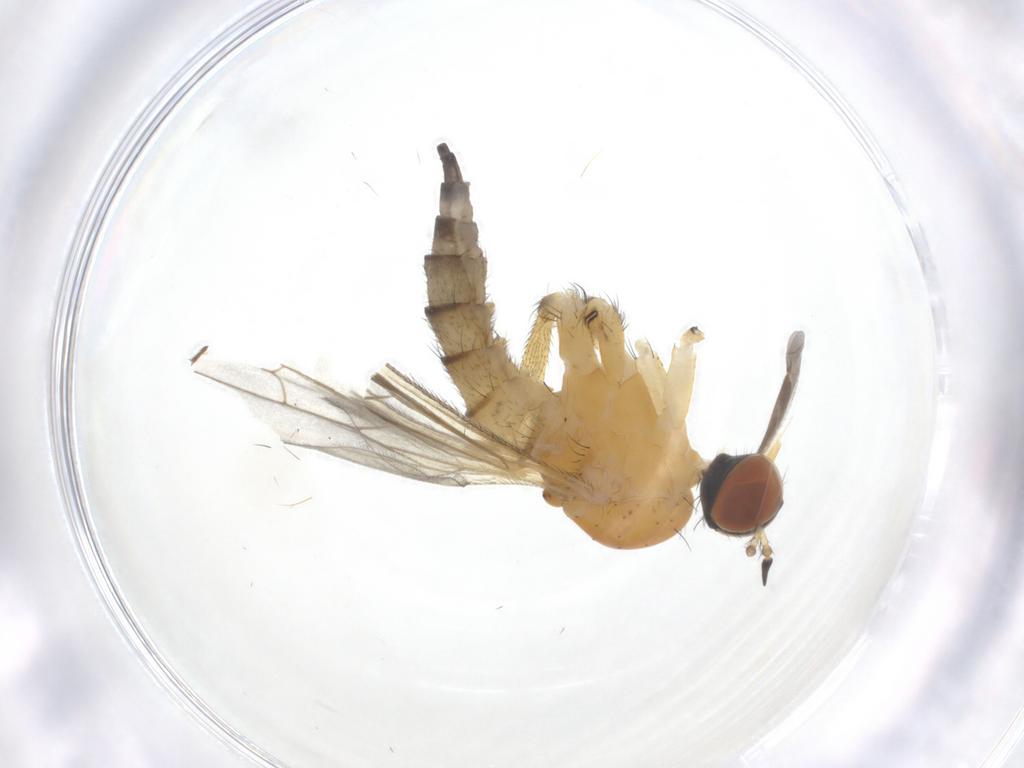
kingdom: Animalia
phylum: Arthropoda
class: Insecta
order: Diptera
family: Empididae
